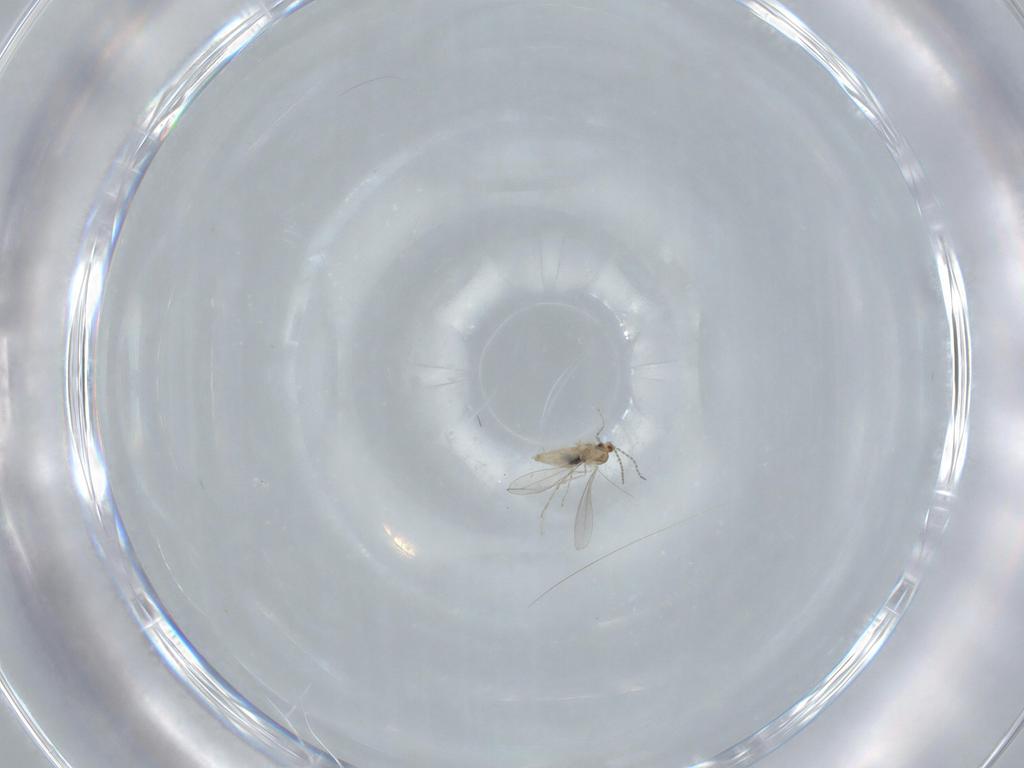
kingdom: Animalia
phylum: Arthropoda
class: Insecta
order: Diptera
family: Cecidomyiidae
